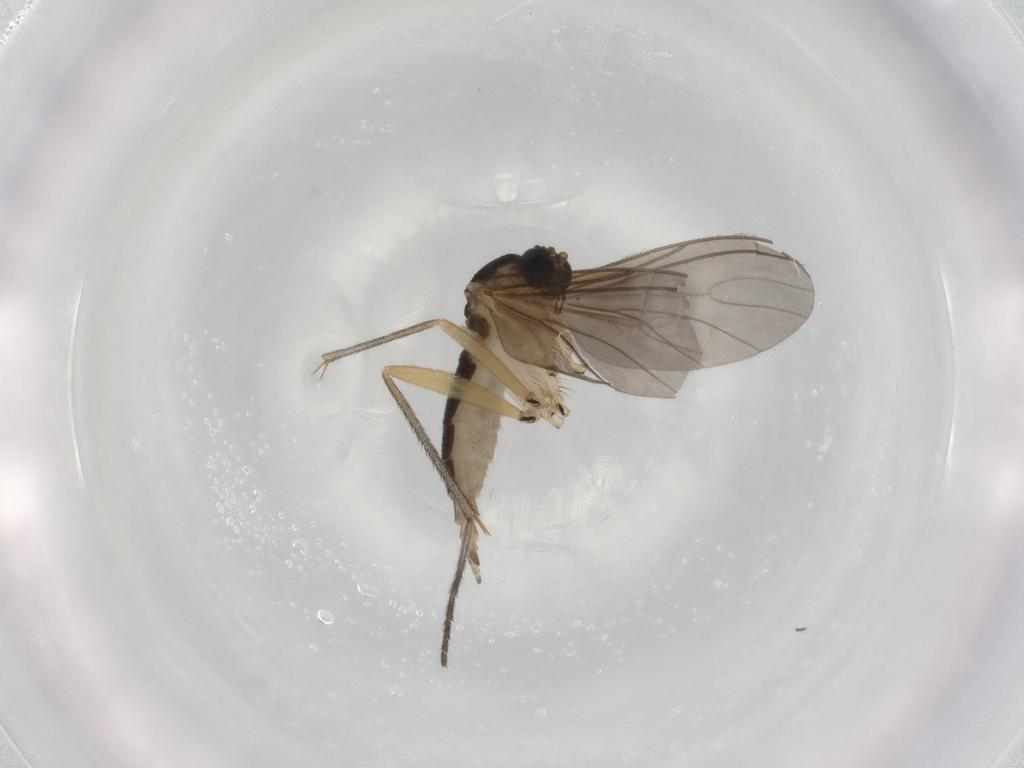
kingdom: Animalia
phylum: Arthropoda
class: Insecta
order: Diptera
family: Sciaridae
